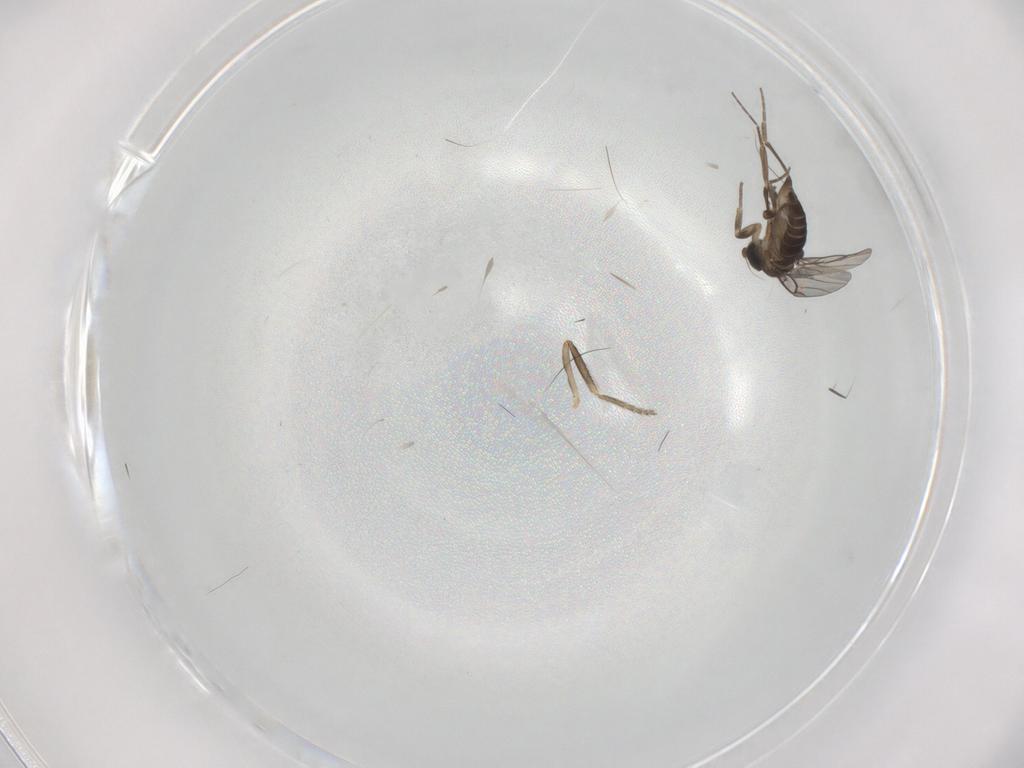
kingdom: Animalia
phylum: Arthropoda
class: Insecta
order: Diptera
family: Ceratopogonidae
